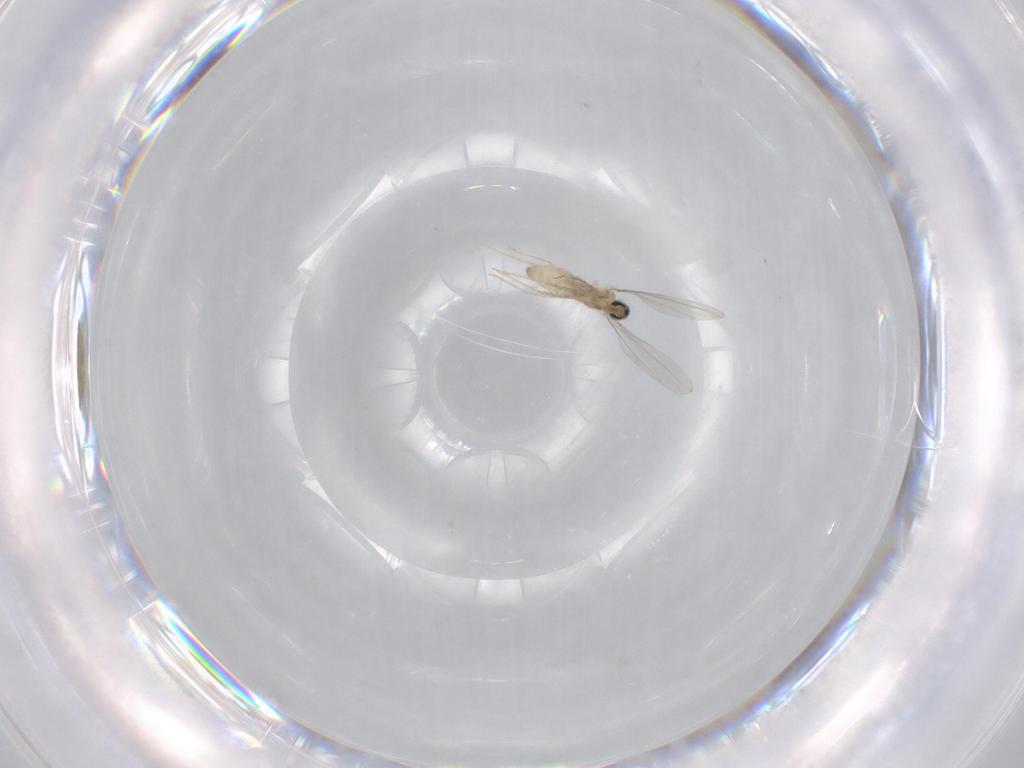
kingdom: Animalia
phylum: Arthropoda
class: Insecta
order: Diptera
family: Cecidomyiidae
